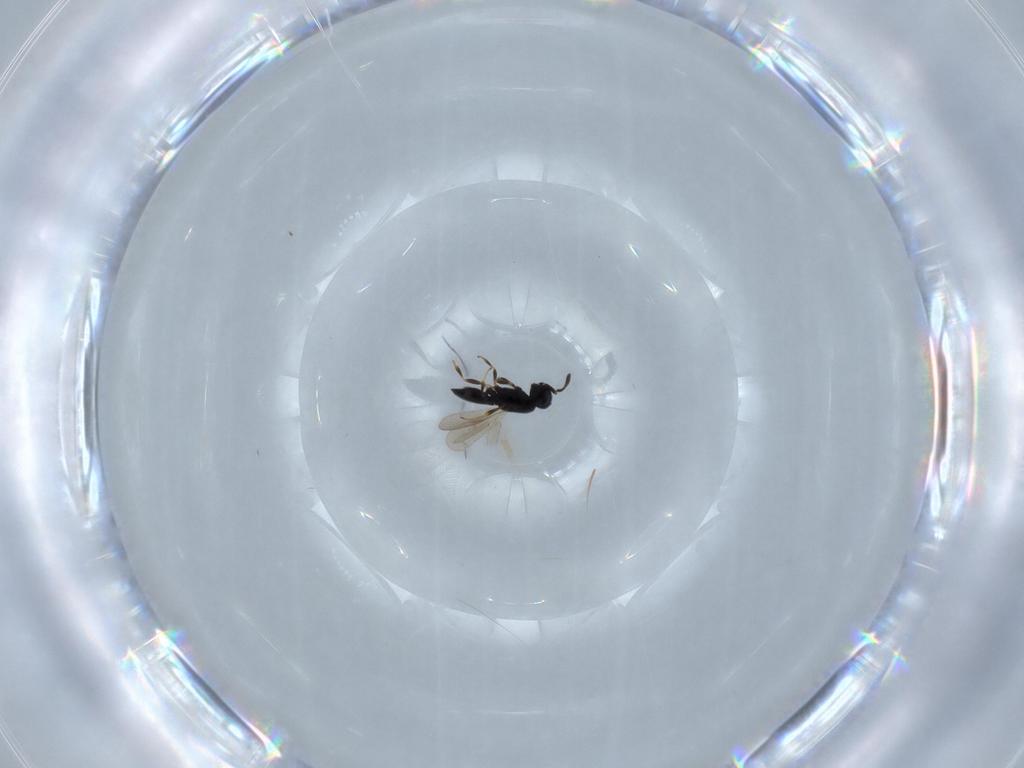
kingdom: Animalia
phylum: Arthropoda
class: Insecta
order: Hymenoptera
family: Scelionidae
